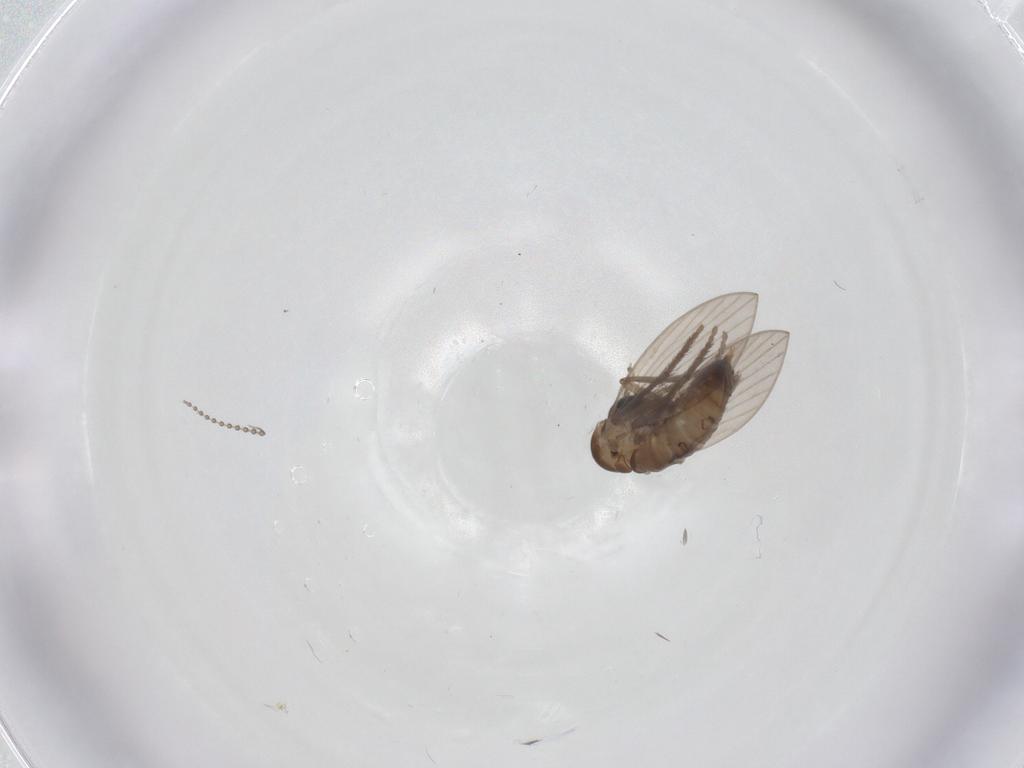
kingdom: Animalia
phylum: Arthropoda
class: Insecta
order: Diptera
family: Psychodidae
